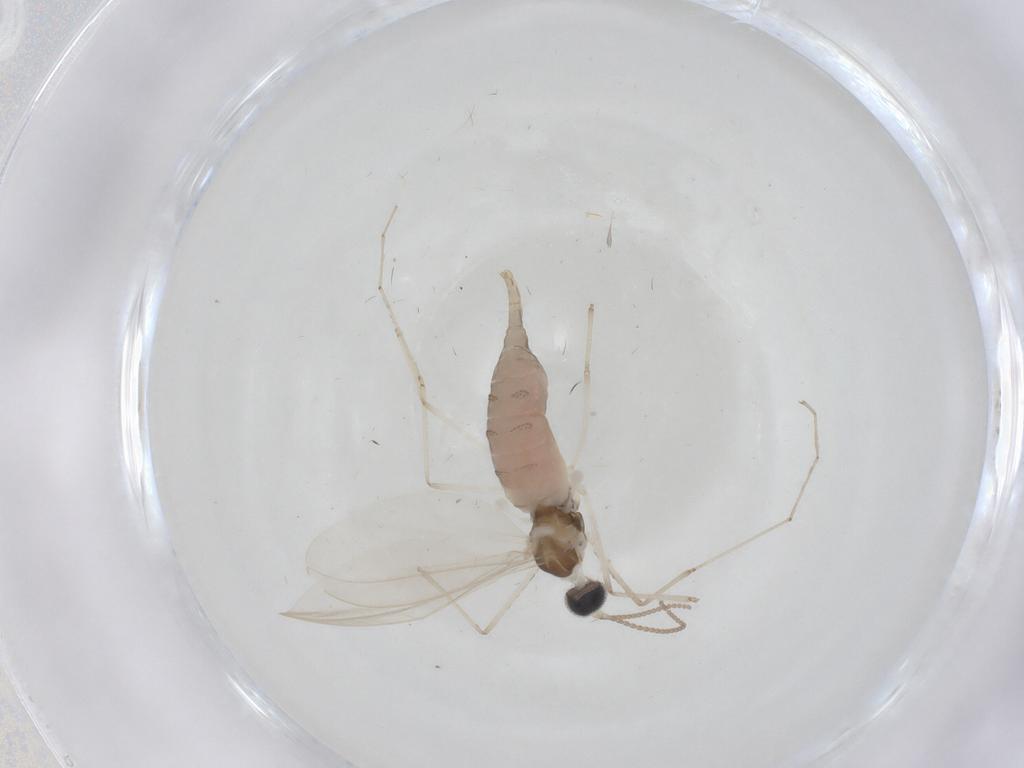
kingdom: Animalia
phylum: Arthropoda
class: Insecta
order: Diptera
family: Cecidomyiidae
